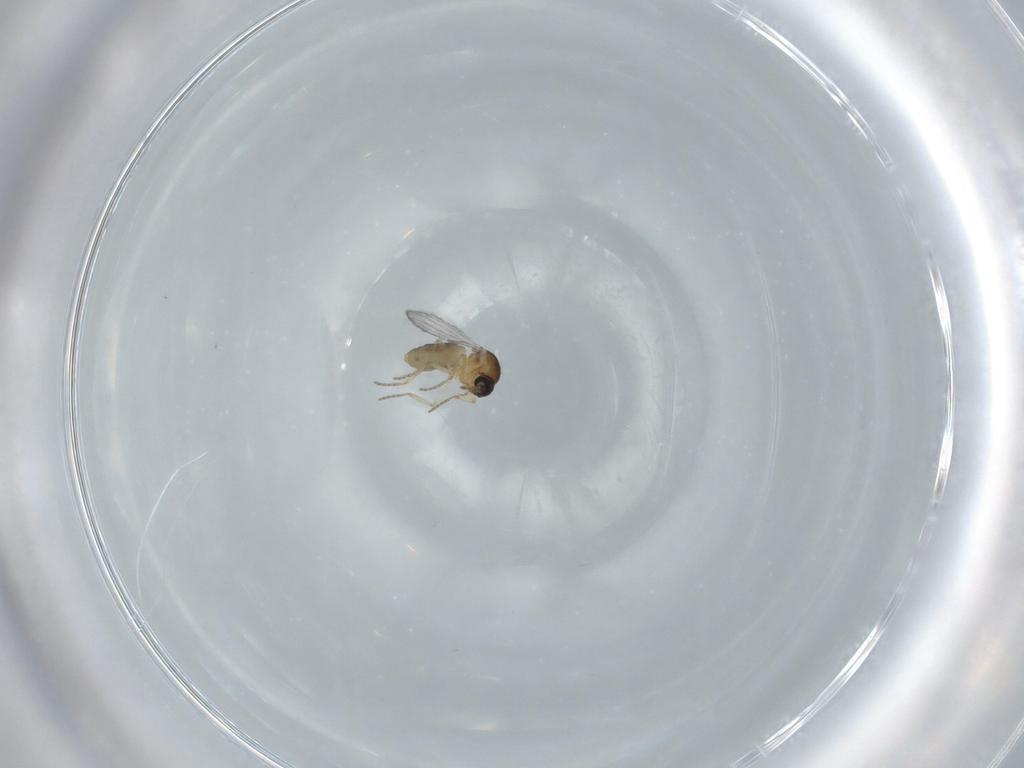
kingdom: Animalia
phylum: Arthropoda
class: Insecta
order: Diptera
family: Ceratopogonidae
